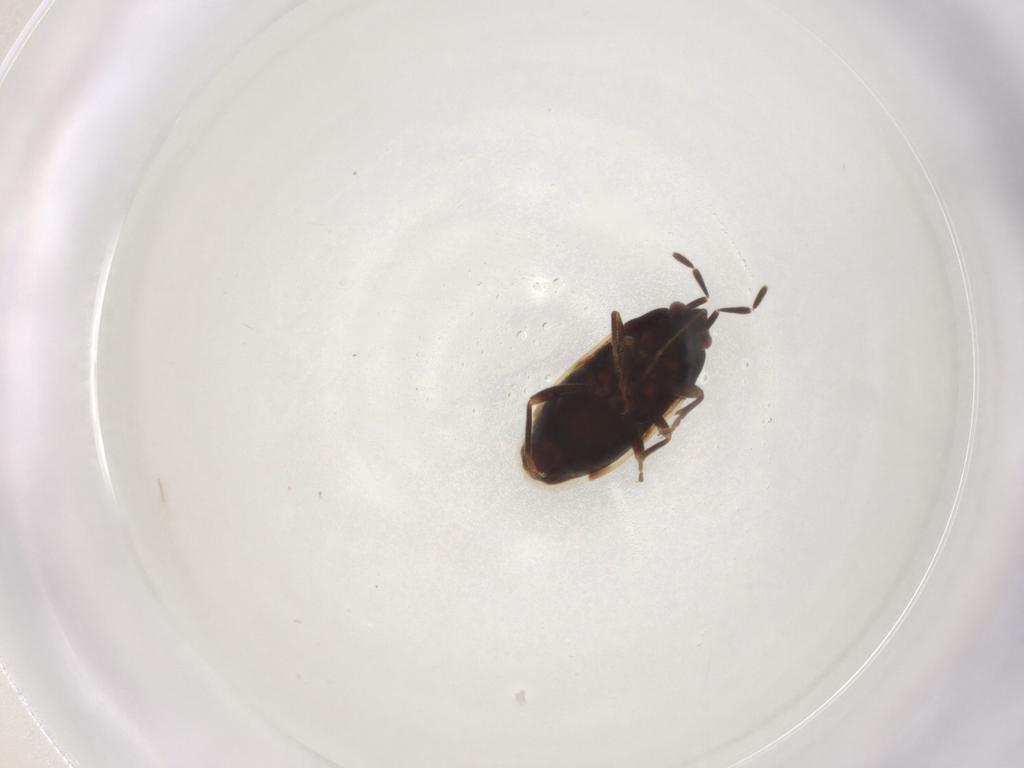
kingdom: Animalia
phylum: Arthropoda
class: Insecta
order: Hemiptera
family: Rhyparochromidae
